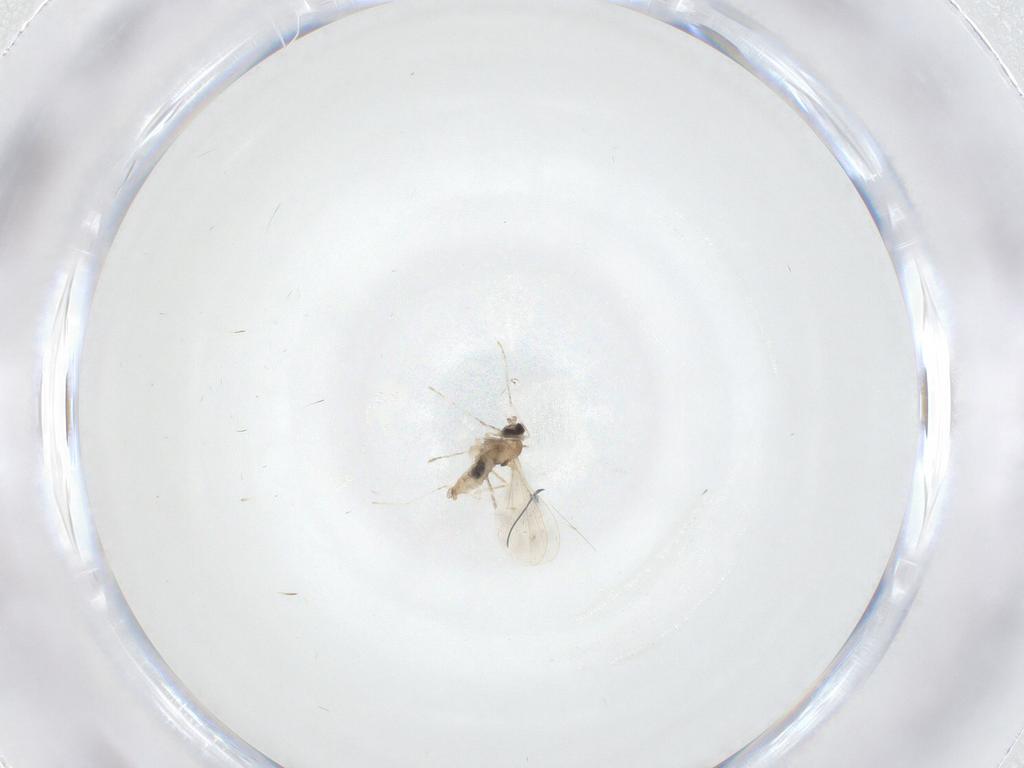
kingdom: Animalia
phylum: Arthropoda
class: Insecta
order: Diptera
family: Cecidomyiidae
